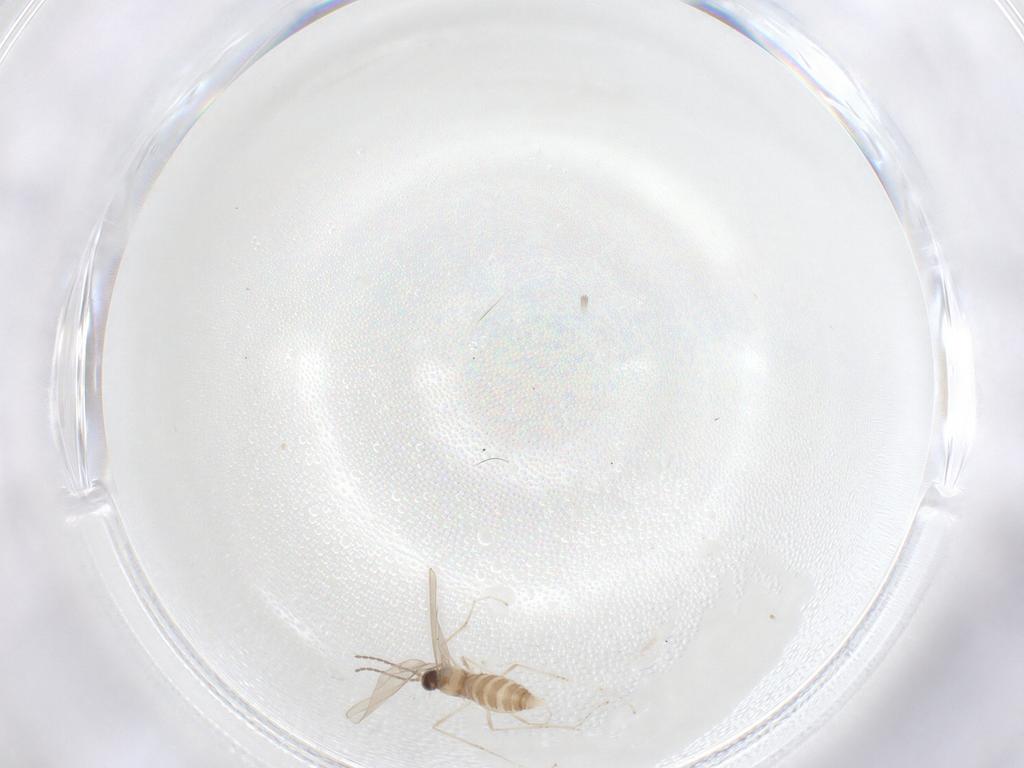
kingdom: Animalia
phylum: Arthropoda
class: Insecta
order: Diptera
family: Cecidomyiidae
